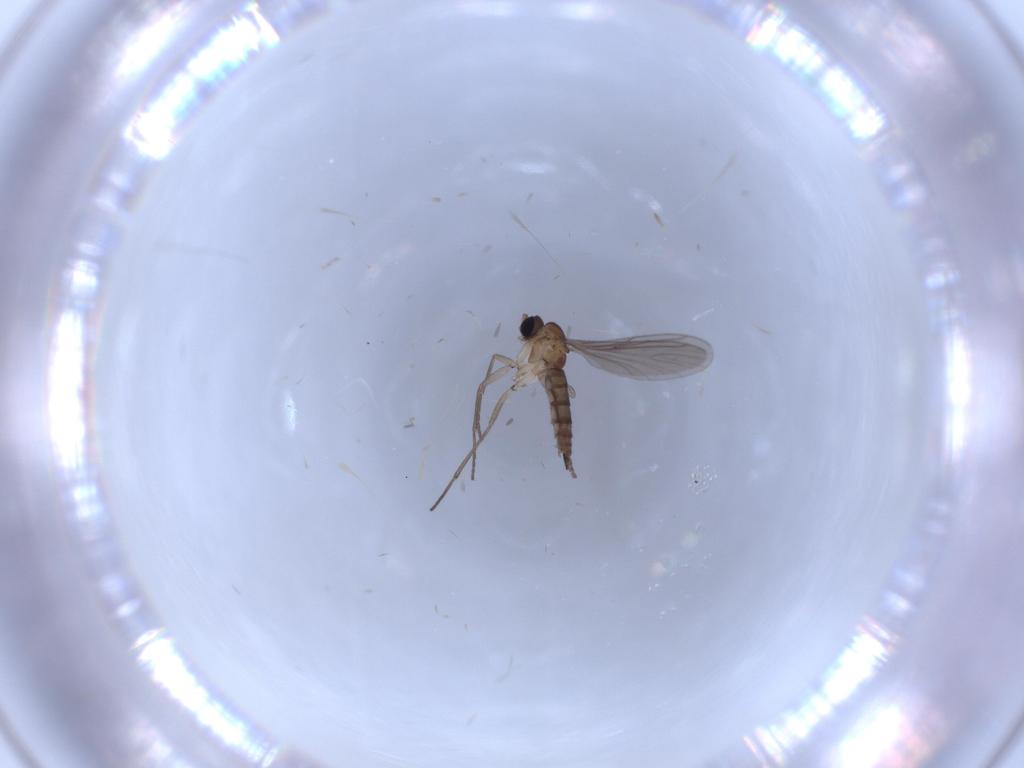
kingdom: Animalia
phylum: Arthropoda
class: Insecta
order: Diptera
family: Sciaridae
